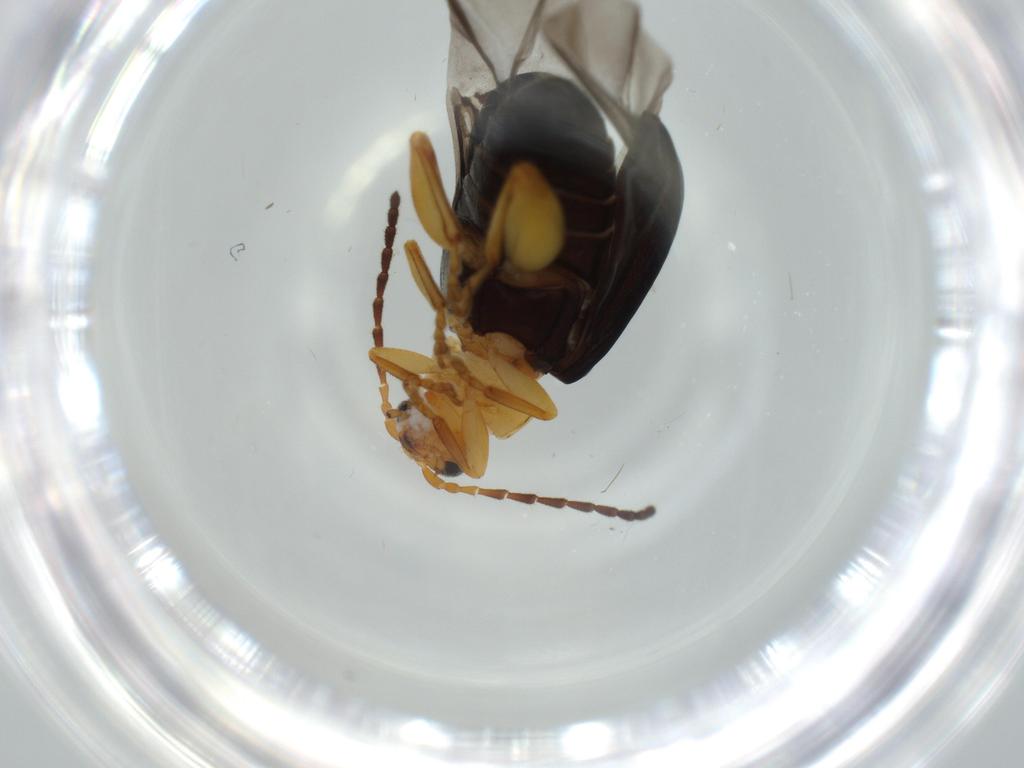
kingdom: Animalia
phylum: Arthropoda
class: Insecta
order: Coleoptera
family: Chrysomelidae
